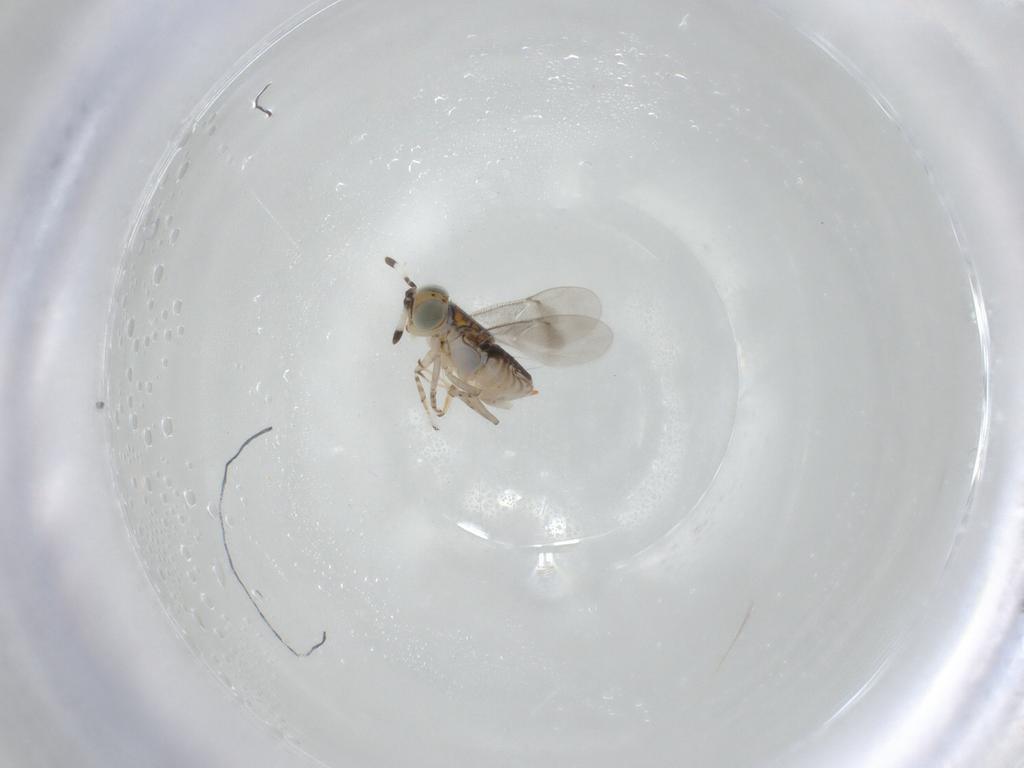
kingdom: Animalia
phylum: Arthropoda
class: Insecta
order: Hymenoptera
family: Encyrtidae
